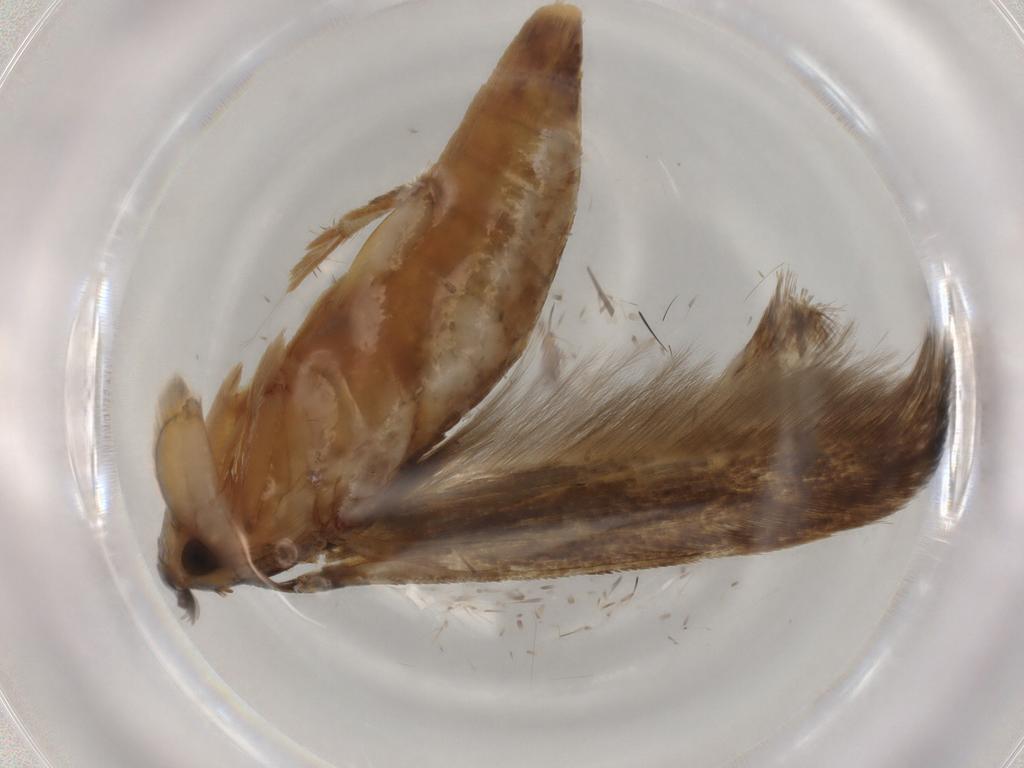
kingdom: Animalia
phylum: Arthropoda
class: Insecta
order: Lepidoptera
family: Tineidae
